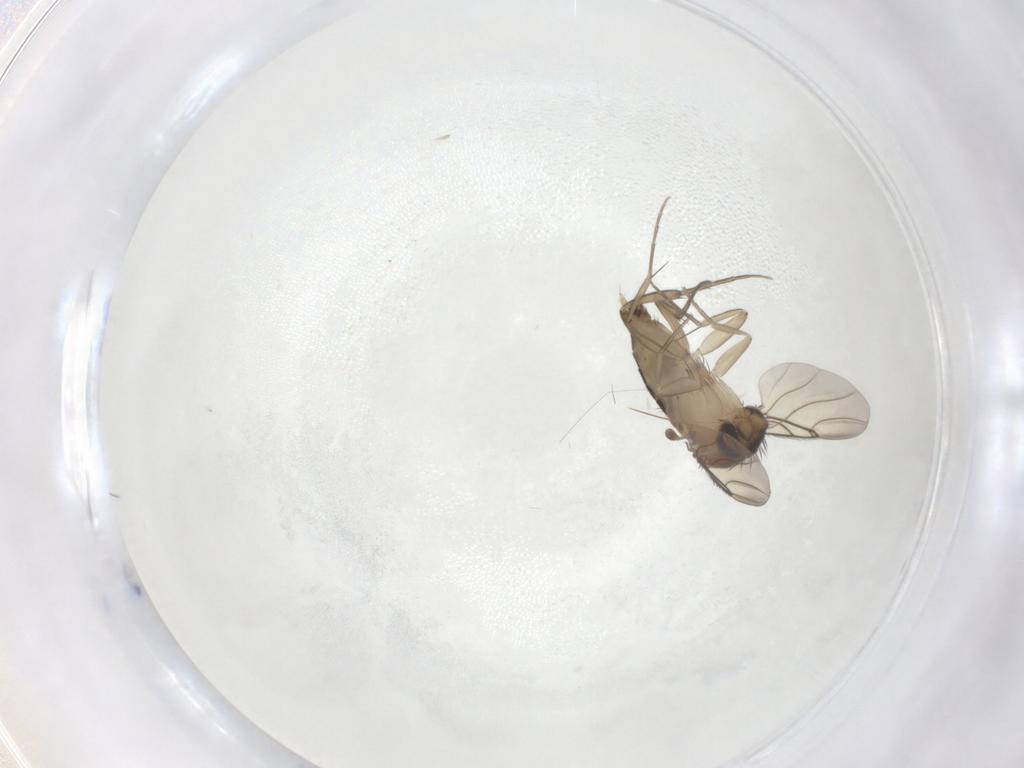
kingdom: Animalia
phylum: Arthropoda
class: Insecta
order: Diptera
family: Phoridae
